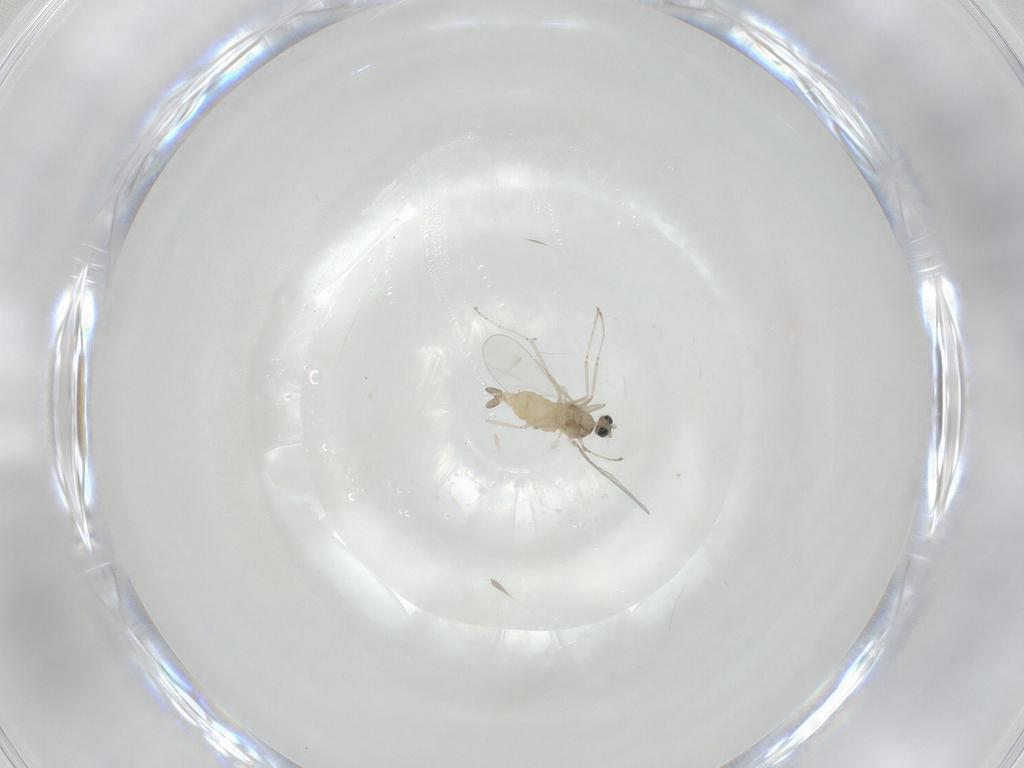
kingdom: Animalia
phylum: Arthropoda
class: Insecta
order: Diptera
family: Cecidomyiidae
